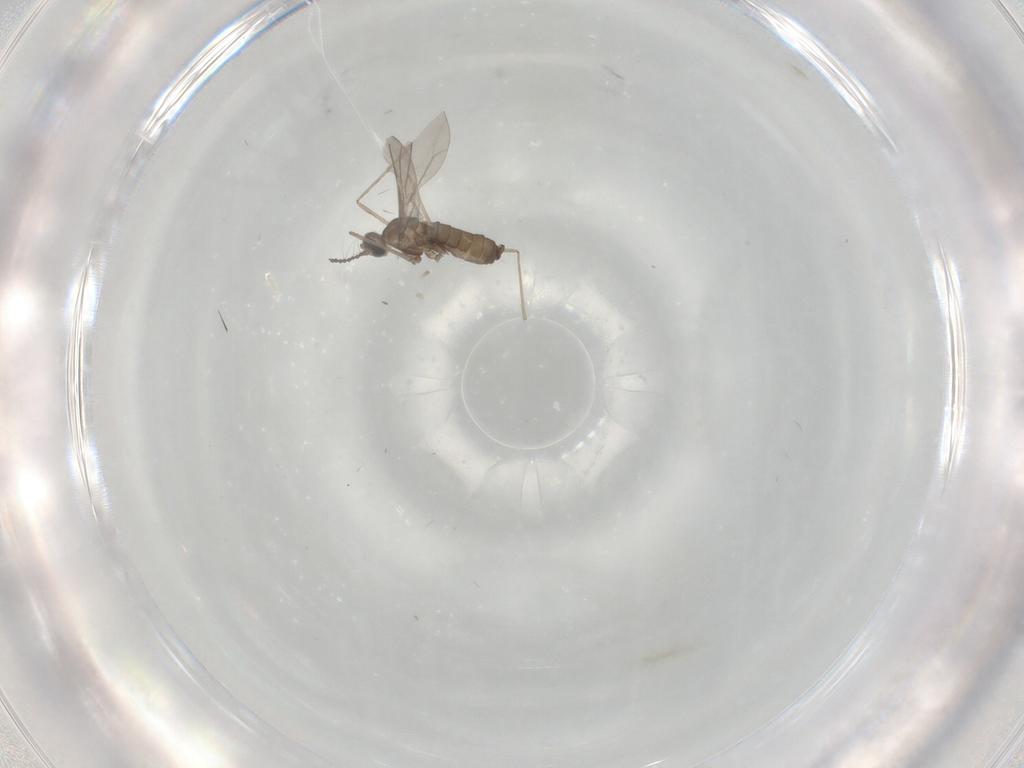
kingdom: Animalia
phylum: Arthropoda
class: Insecta
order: Diptera
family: Cecidomyiidae
